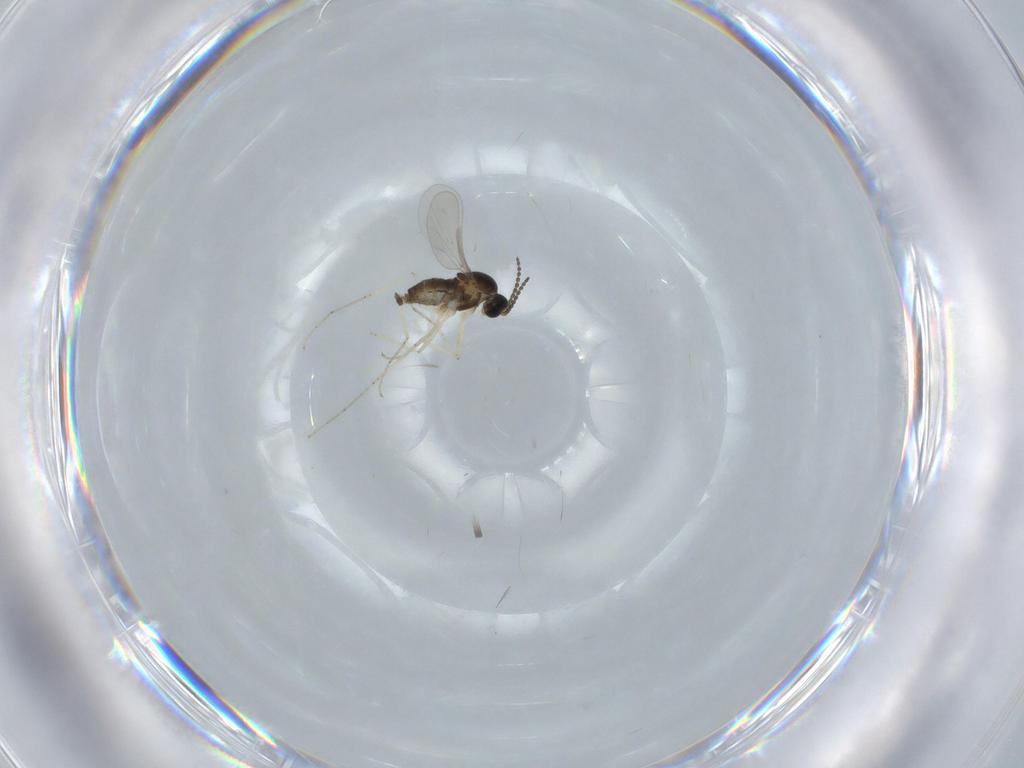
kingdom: Animalia
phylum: Arthropoda
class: Insecta
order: Diptera
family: Cecidomyiidae
